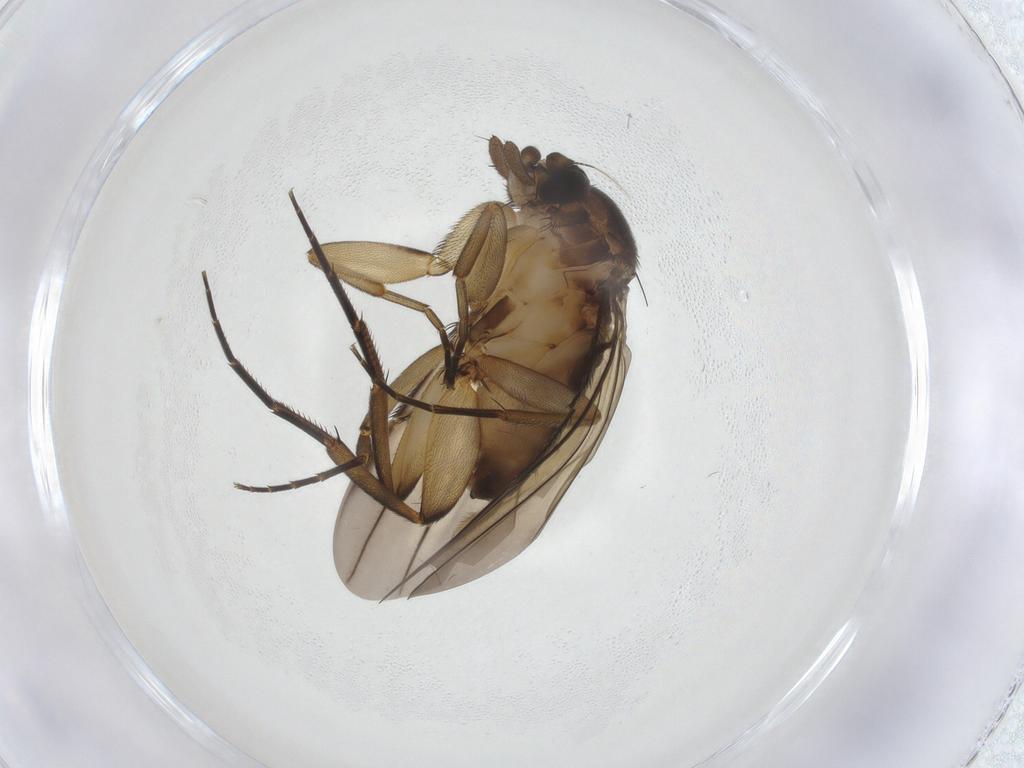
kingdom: Animalia
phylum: Arthropoda
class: Insecta
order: Diptera
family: Phoridae
